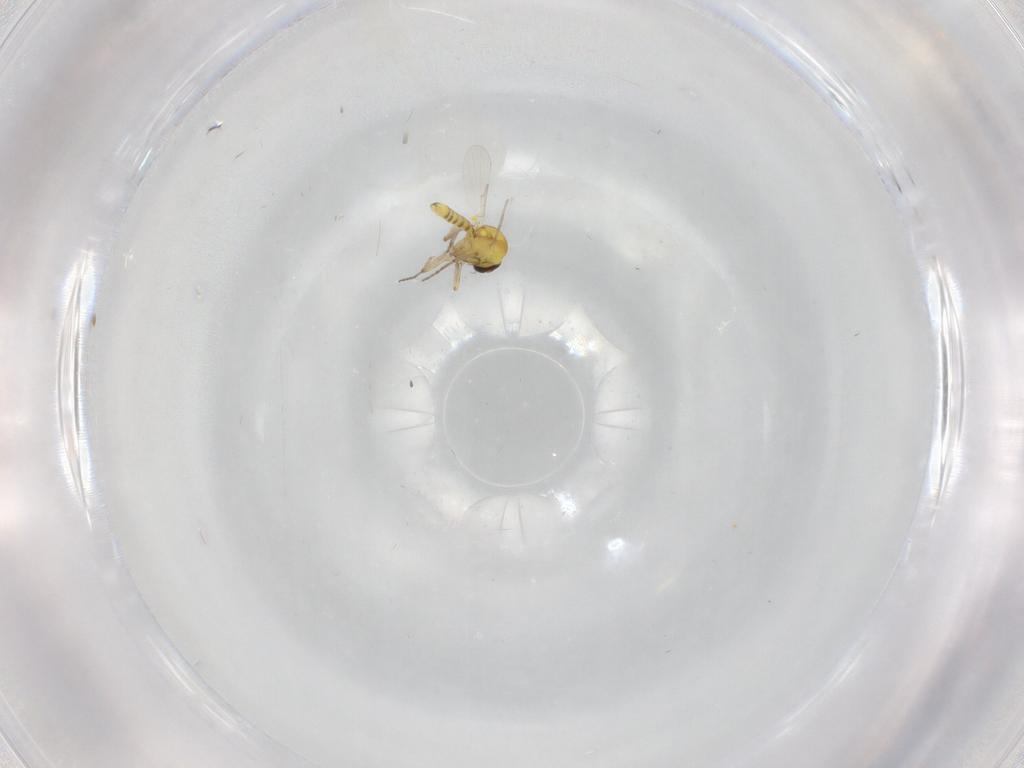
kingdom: Animalia
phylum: Arthropoda
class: Insecta
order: Diptera
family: Ceratopogonidae
